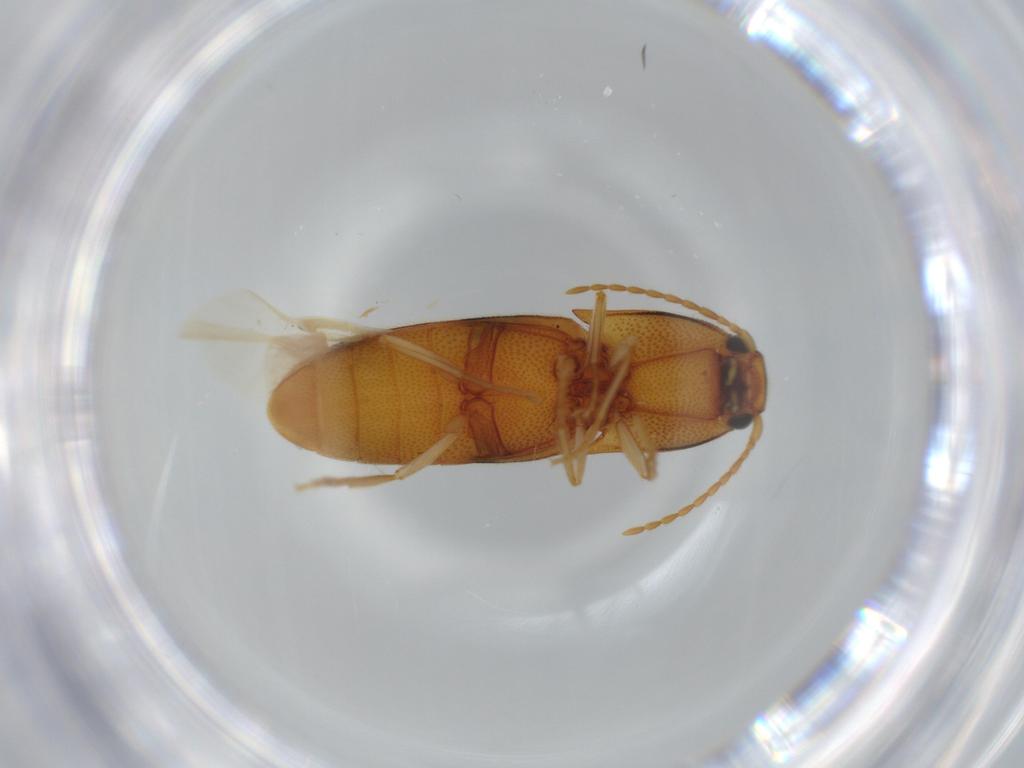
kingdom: Animalia
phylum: Arthropoda
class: Insecta
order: Coleoptera
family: Elateridae
